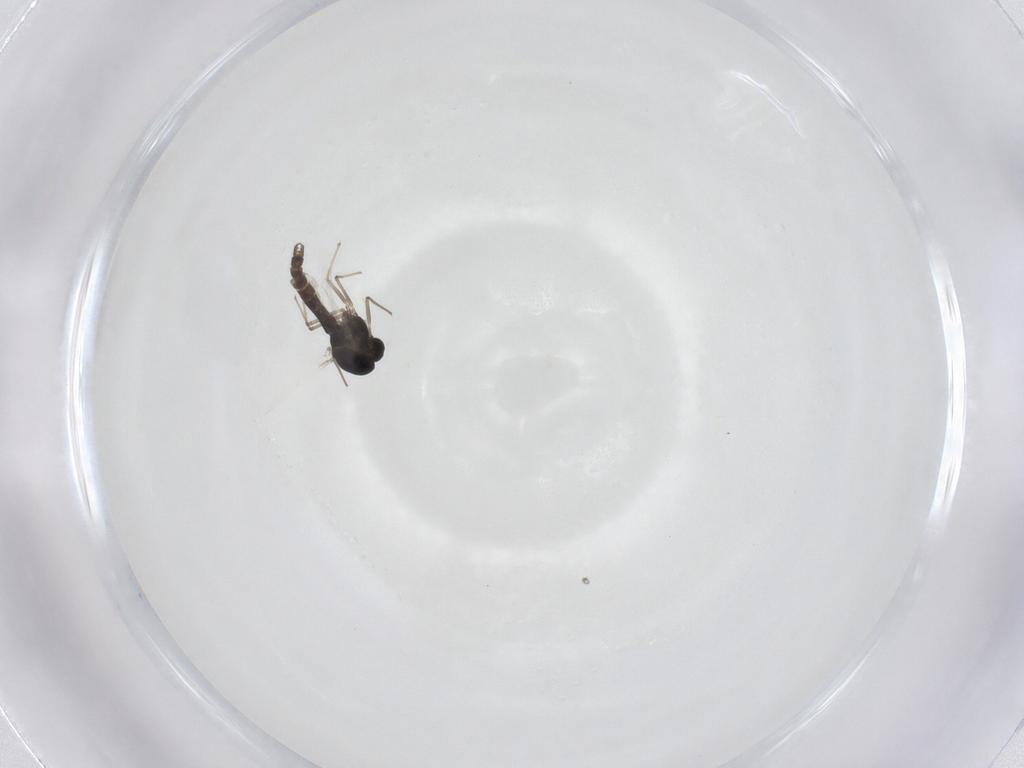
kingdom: Animalia
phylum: Arthropoda
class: Insecta
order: Diptera
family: Chironomidae
